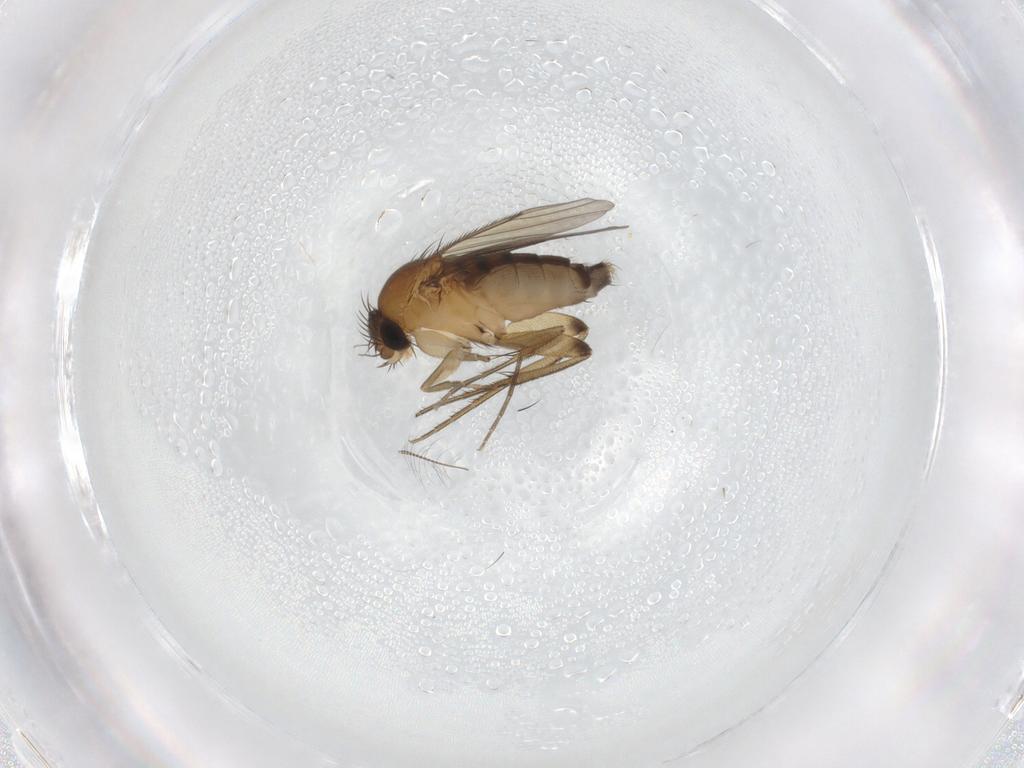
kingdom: Animalia
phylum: Arthropoda
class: Insecta
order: Diptera
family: Phoridae
